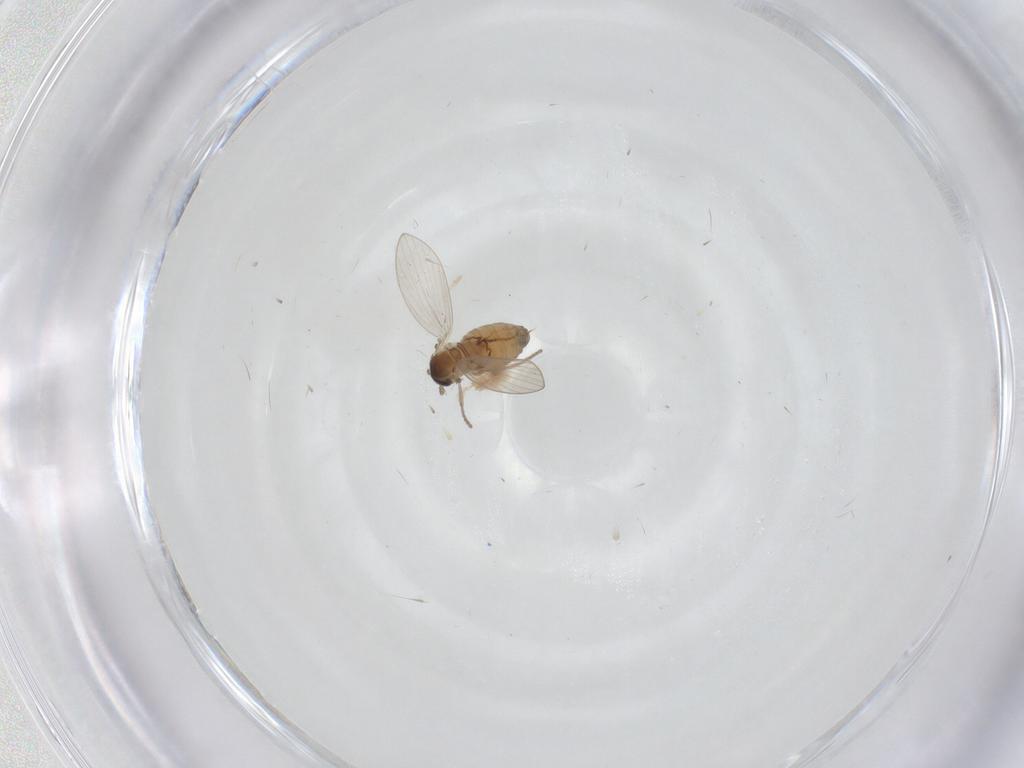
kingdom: Animalia
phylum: Arthropoda
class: Insecta
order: Diptera
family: Psychodidae
